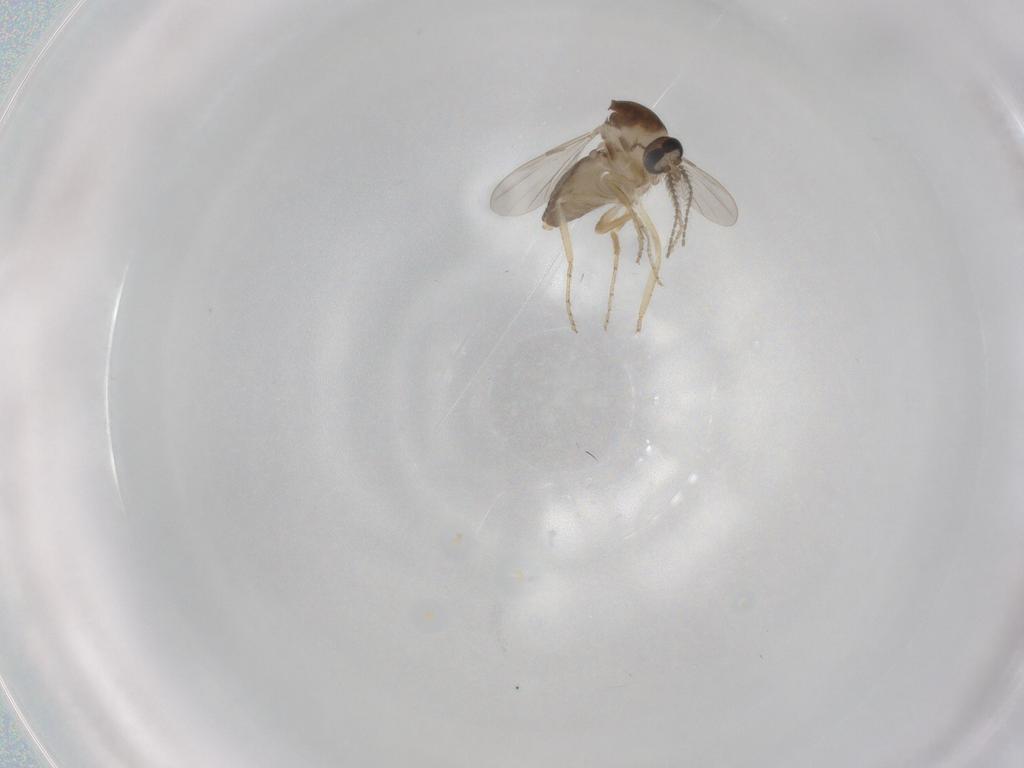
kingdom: Animalia
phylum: Arthropoda
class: Insecta
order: Diptera
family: Ceratopogonidae
